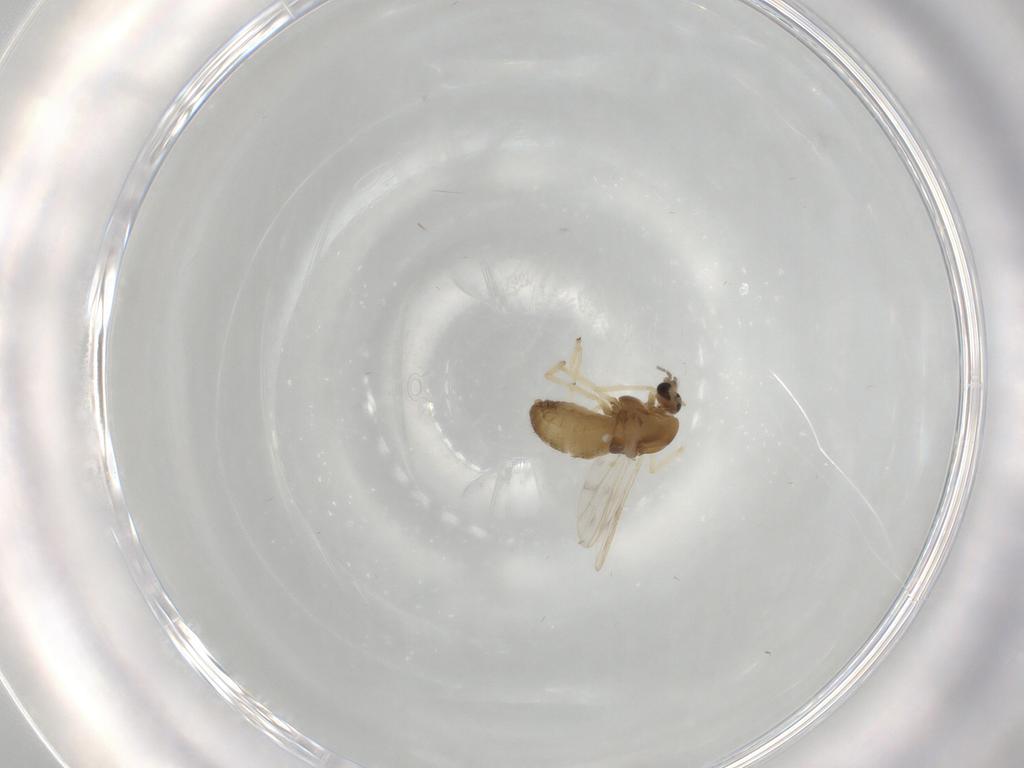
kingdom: Animalia
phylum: Arthropoda
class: Insecta
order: Diptera
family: Chironomidae
